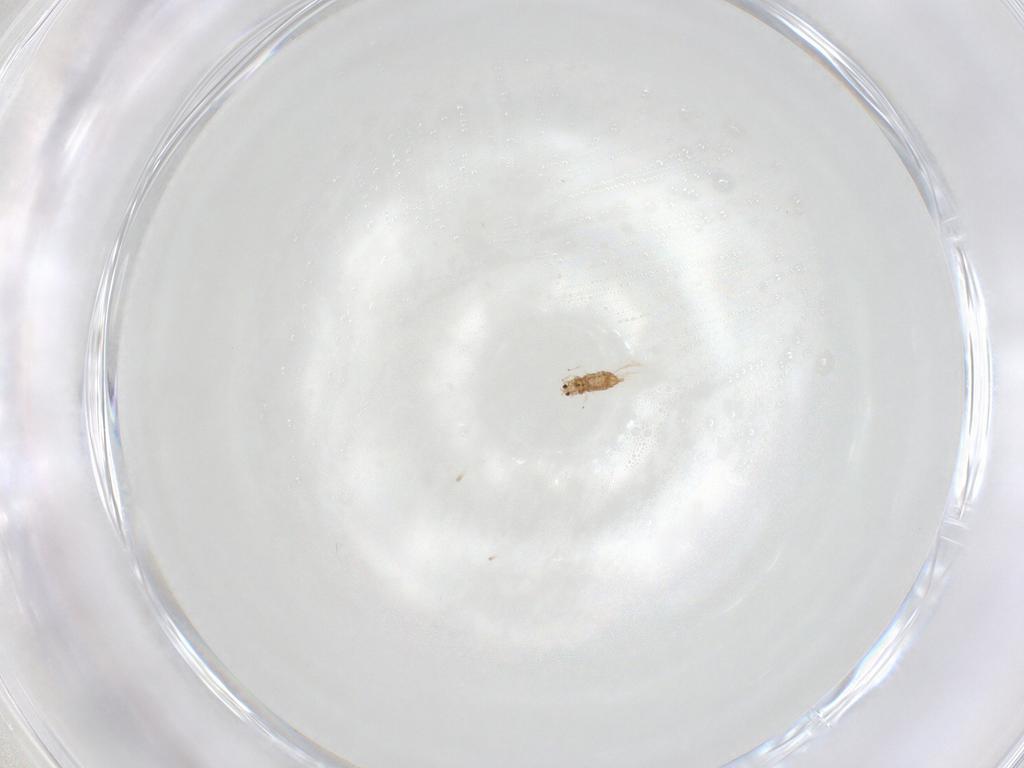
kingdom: Animalia
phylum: Arthropoda
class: Insecta
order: Thysanoptera
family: Thripidae
